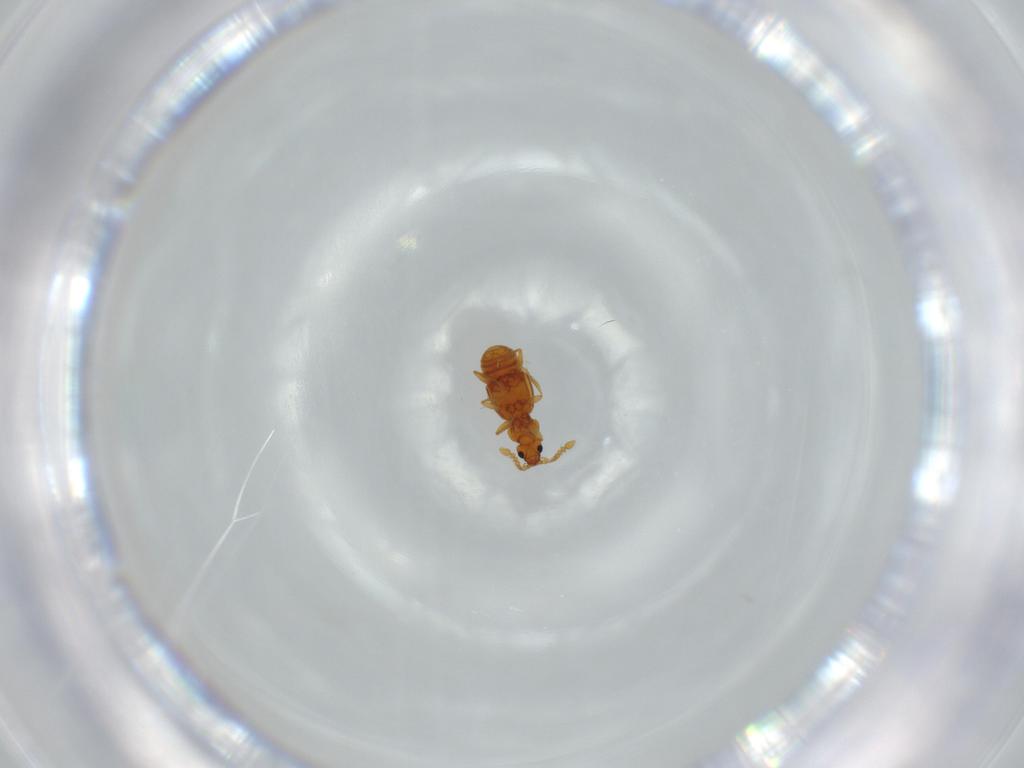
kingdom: Animalia
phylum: Arthropoda
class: Insecta
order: Coleoptera
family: Staphylinidae
